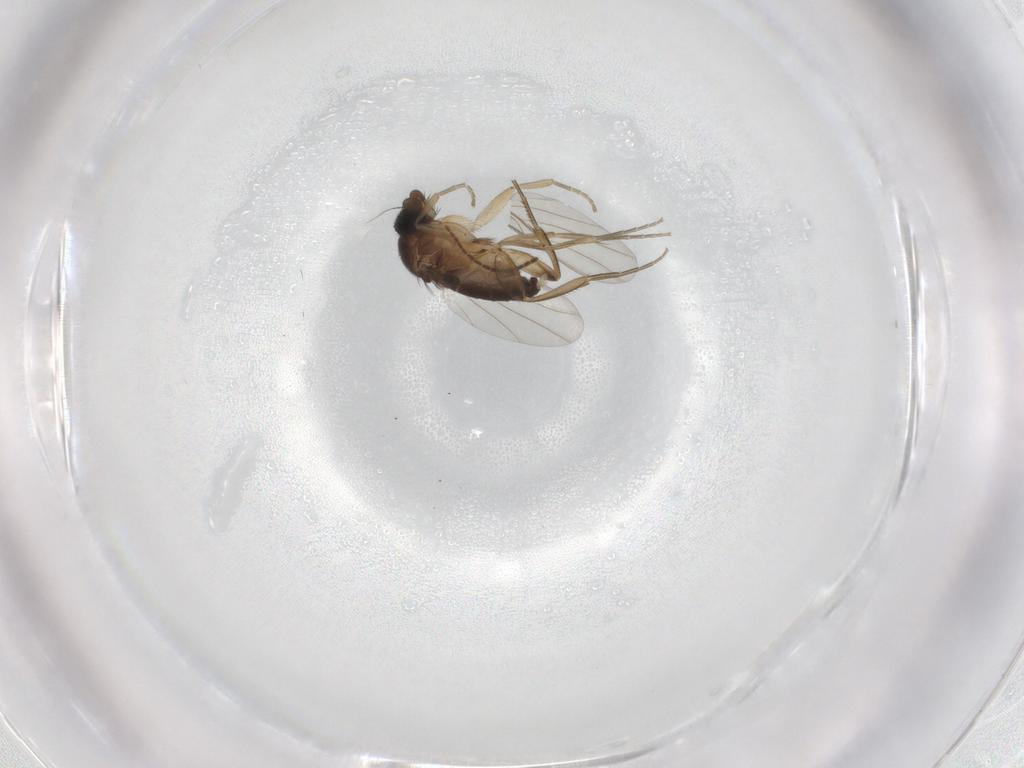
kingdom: Animalia
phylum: Arthropoda
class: Insecta
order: Diptera
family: Phoridae
